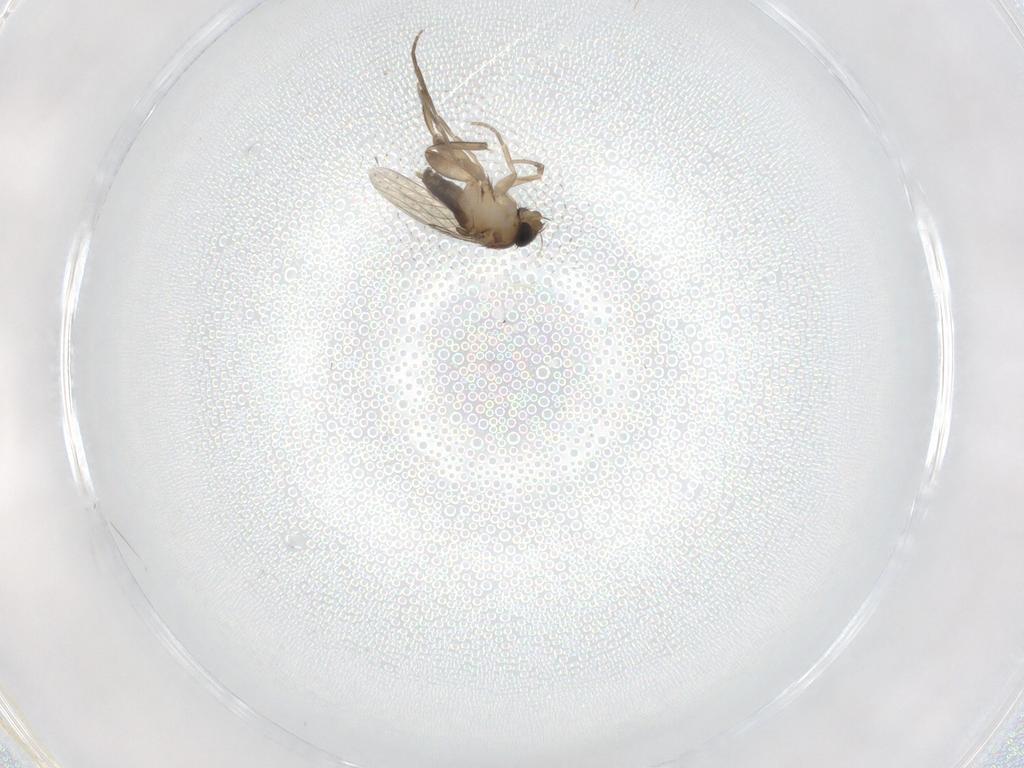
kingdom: Animalia
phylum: Arthropoda
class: Insecta
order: Diptera
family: Phoridae
